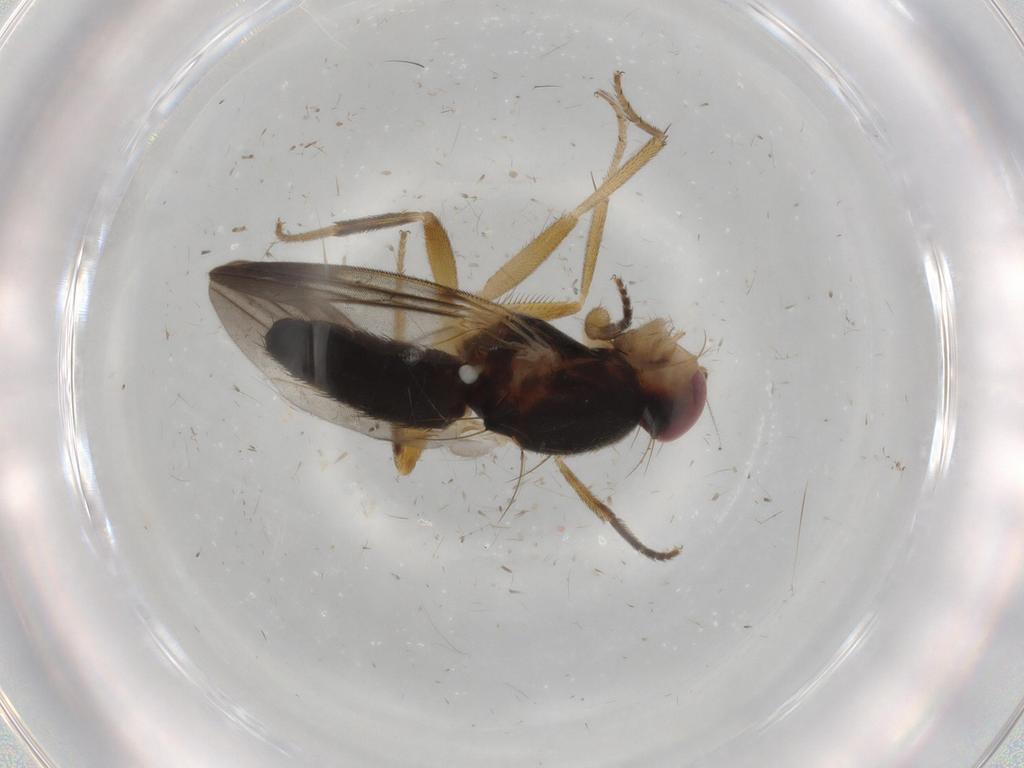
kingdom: Animalia
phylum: Arthropoda
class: Insecta
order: Diptera
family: Clusiidae
